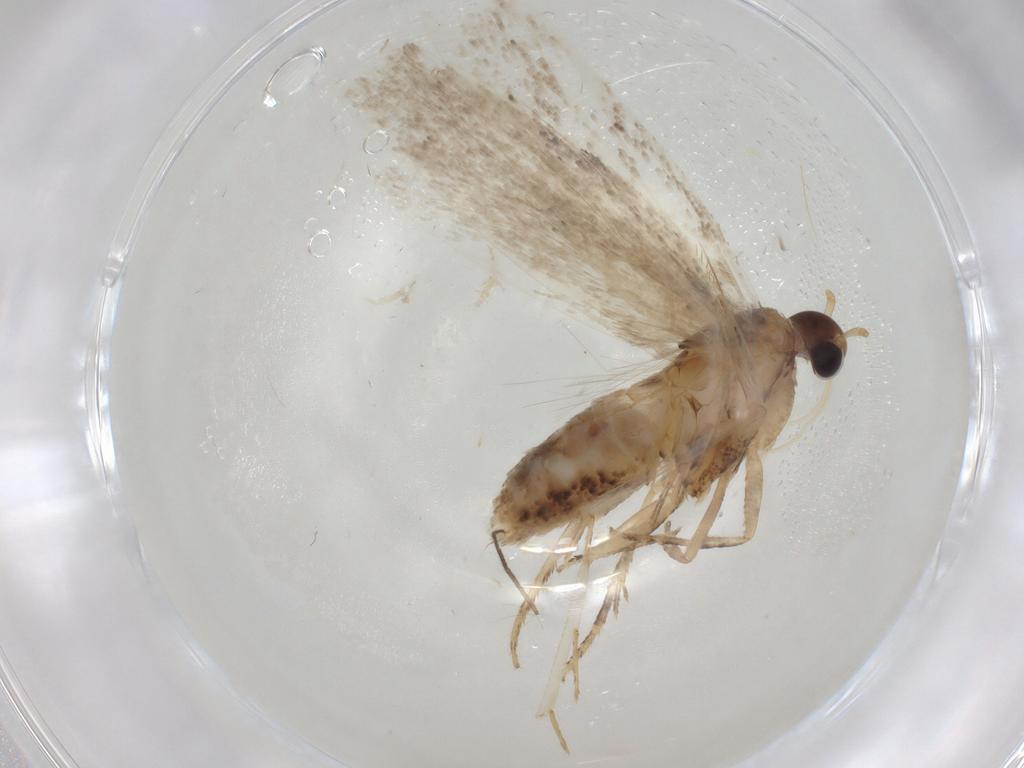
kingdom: Animalia
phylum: Arthropoda
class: Insecta
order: Lepidoptera
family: Gelechiidae
